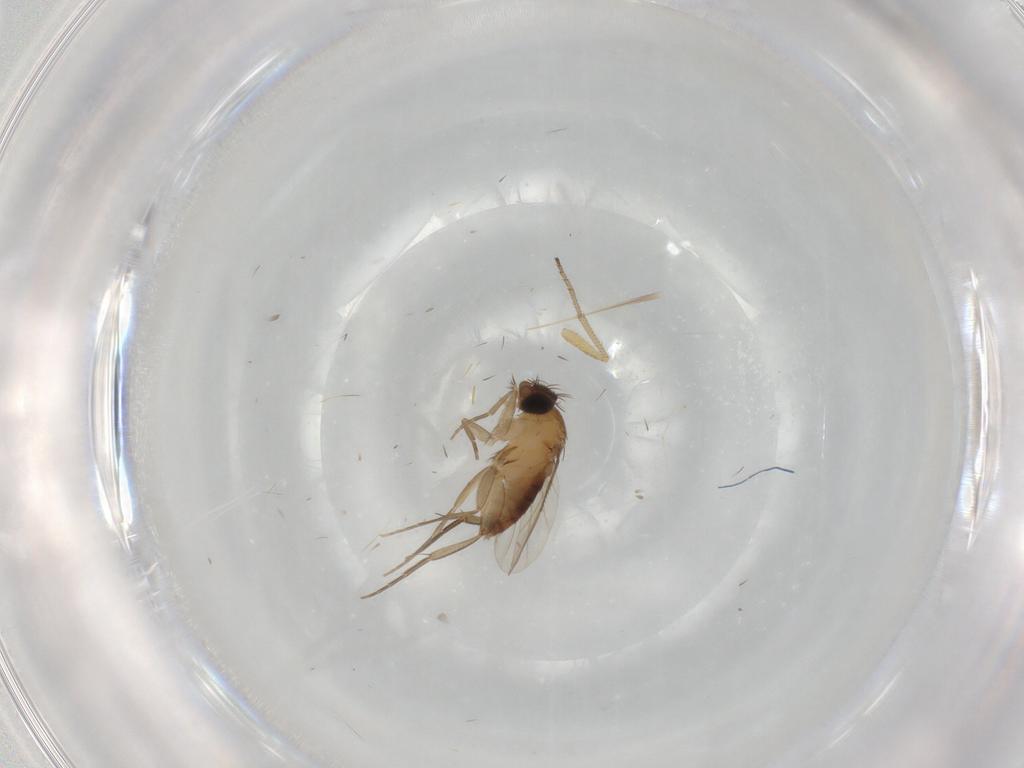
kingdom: Animalia
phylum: Arthropoda
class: Insecta
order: Diptera
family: Phoridae
